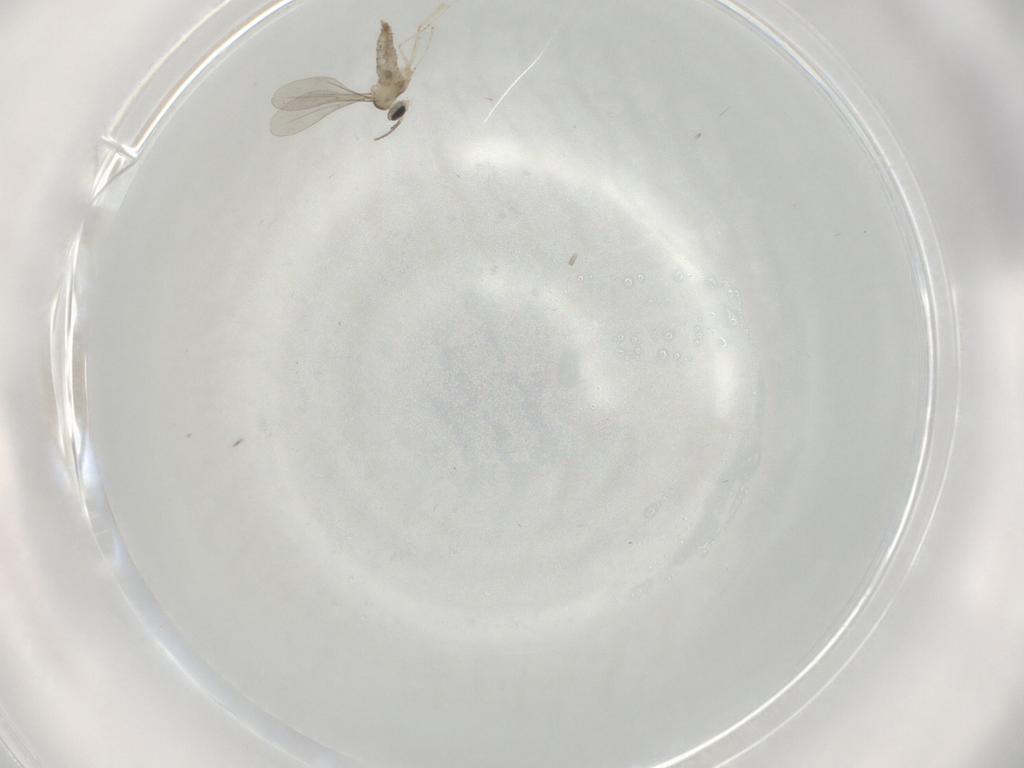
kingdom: Animalia
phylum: Arthropoda
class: Insecta
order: Diptera
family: Cecidomyiidae
